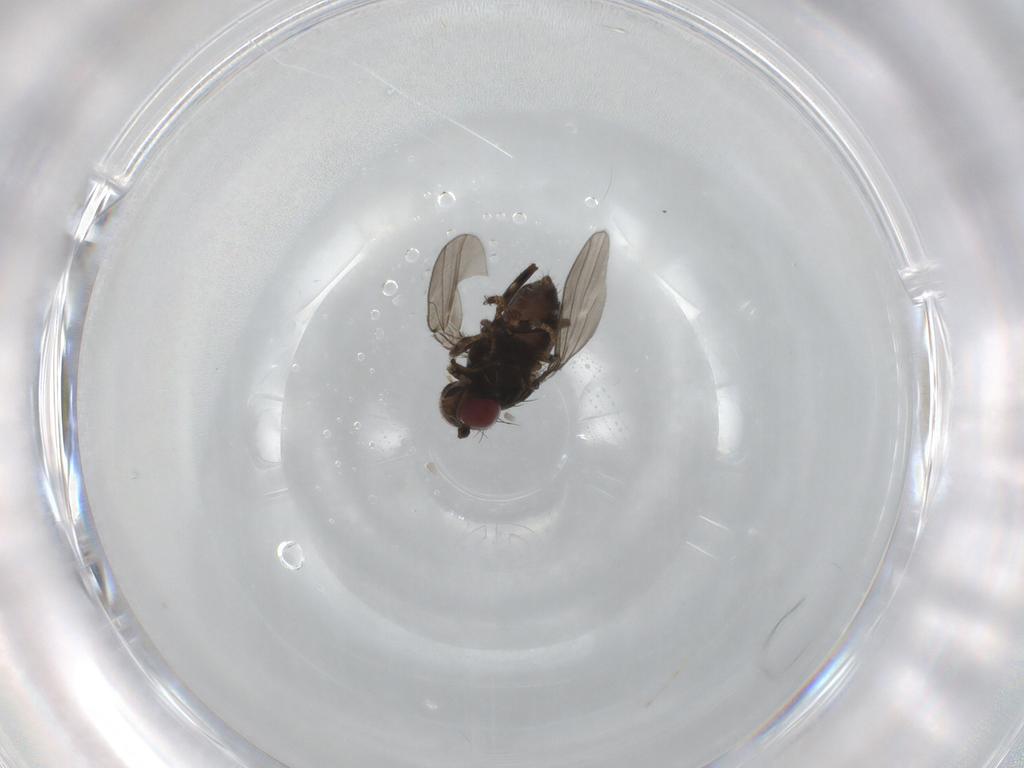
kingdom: Animalia
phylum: Arthropoda
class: Insecta
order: Diptera
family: Ephydridae
